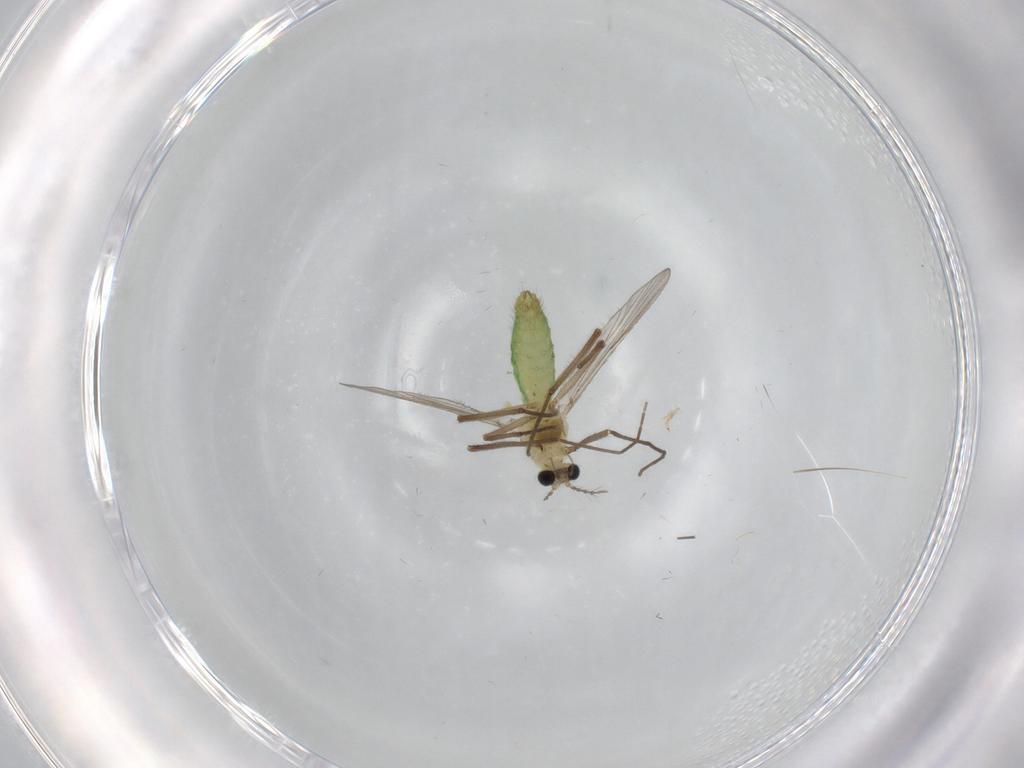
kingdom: Animalia
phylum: Arthropoda
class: Insecta
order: Diptera
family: Chironomidae
